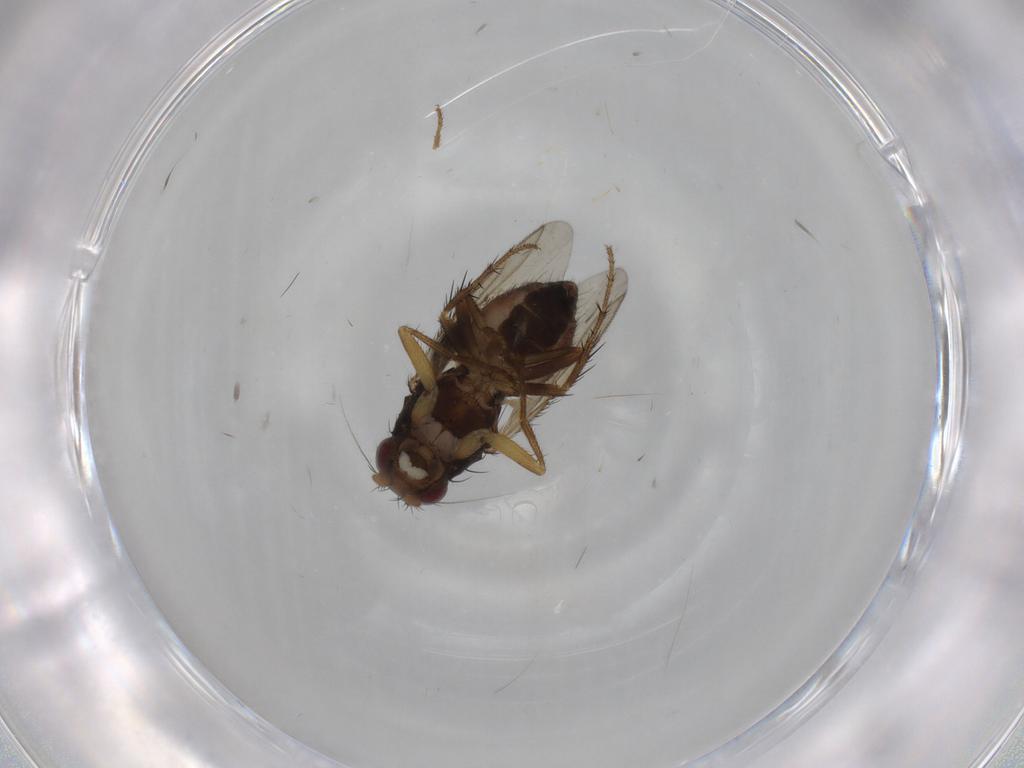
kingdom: Animalia
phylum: Arthropoda
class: Insecta
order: Diptera
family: Sphaeroceridae
